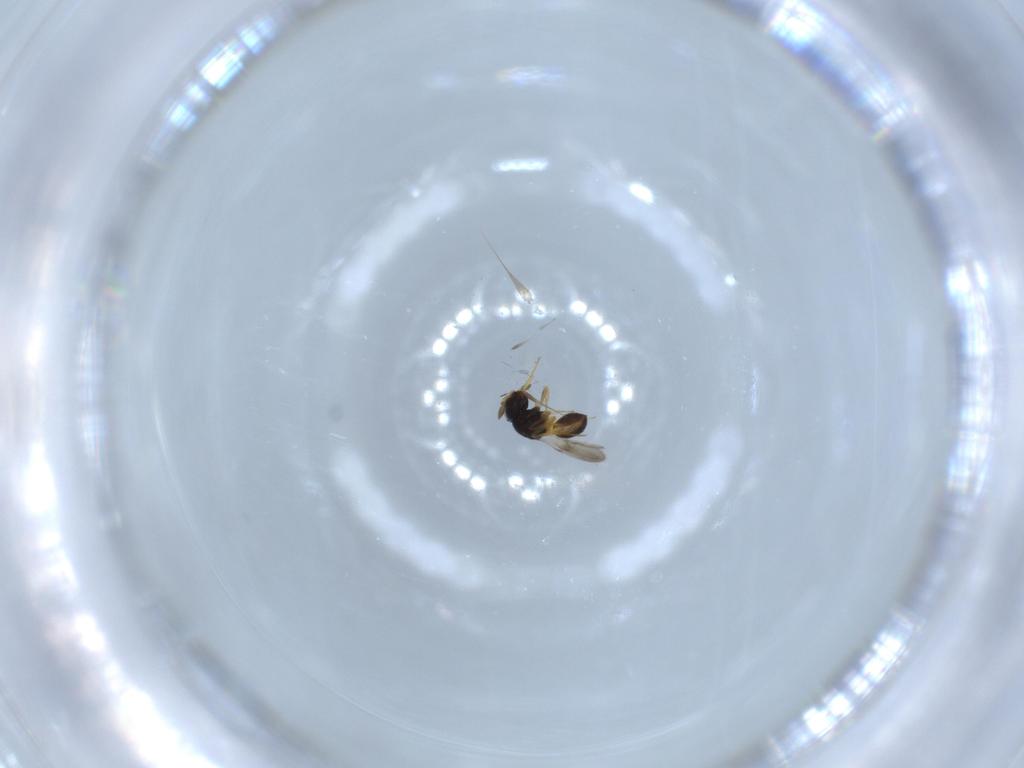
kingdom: Animalia
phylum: Arthropoda
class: Insecta
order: Hymenoptera
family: Scelionidae
